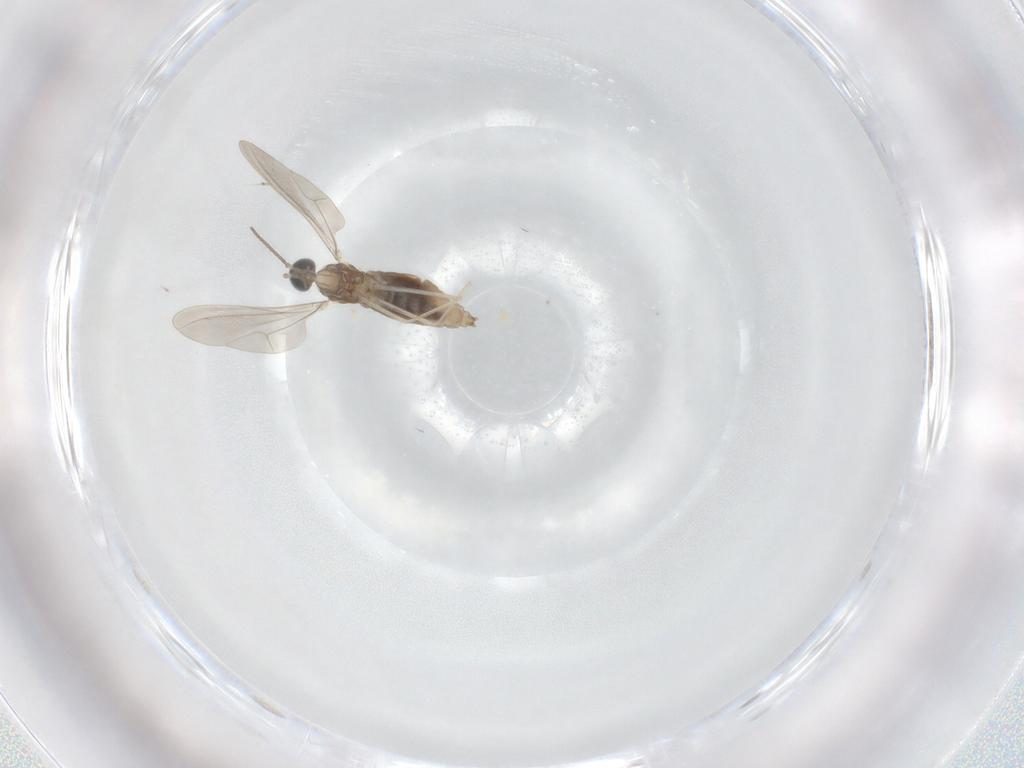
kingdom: Animalia
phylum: Arthropoda
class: Insecta
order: Diptera
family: Cecidomyiidae
